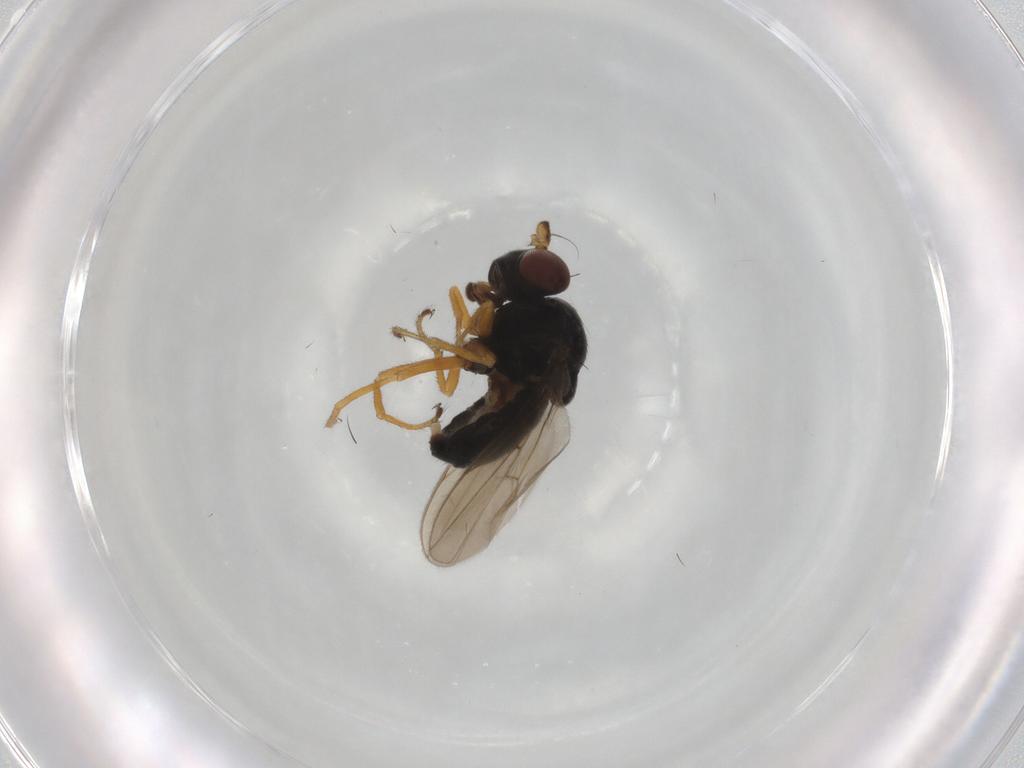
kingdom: Animalia
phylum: Arthropoda
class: Insecta
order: Diptera
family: Ephydridae
